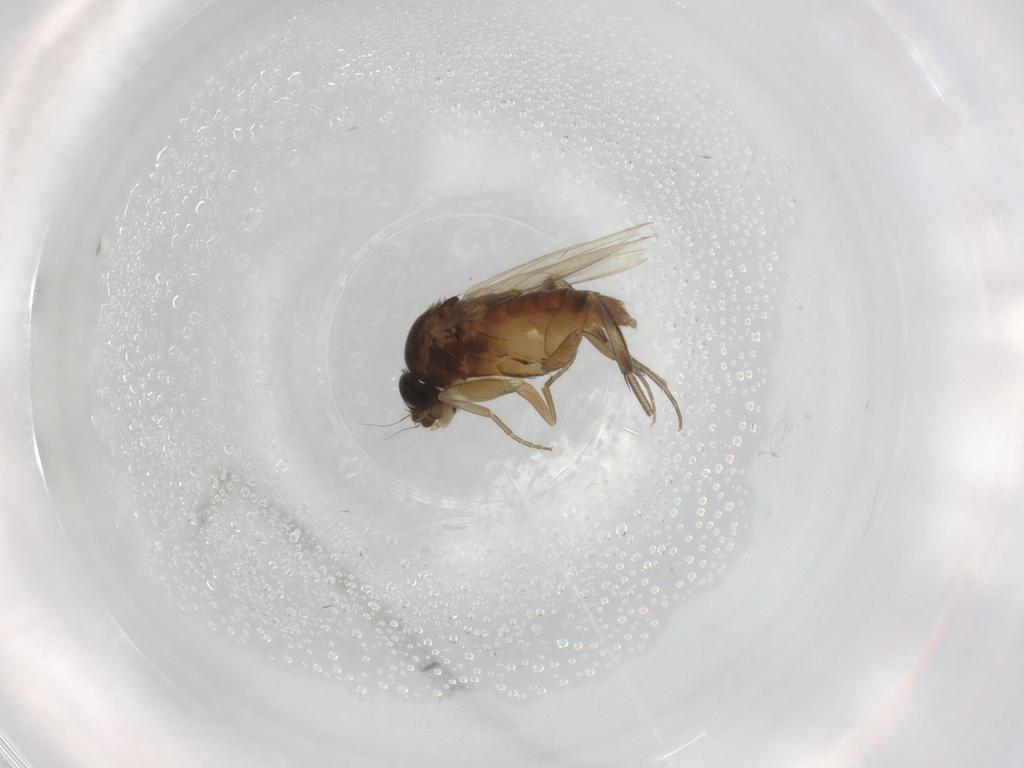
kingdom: Animalia
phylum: Arthropoda
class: Insecta
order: Diptera
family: Phoridae
